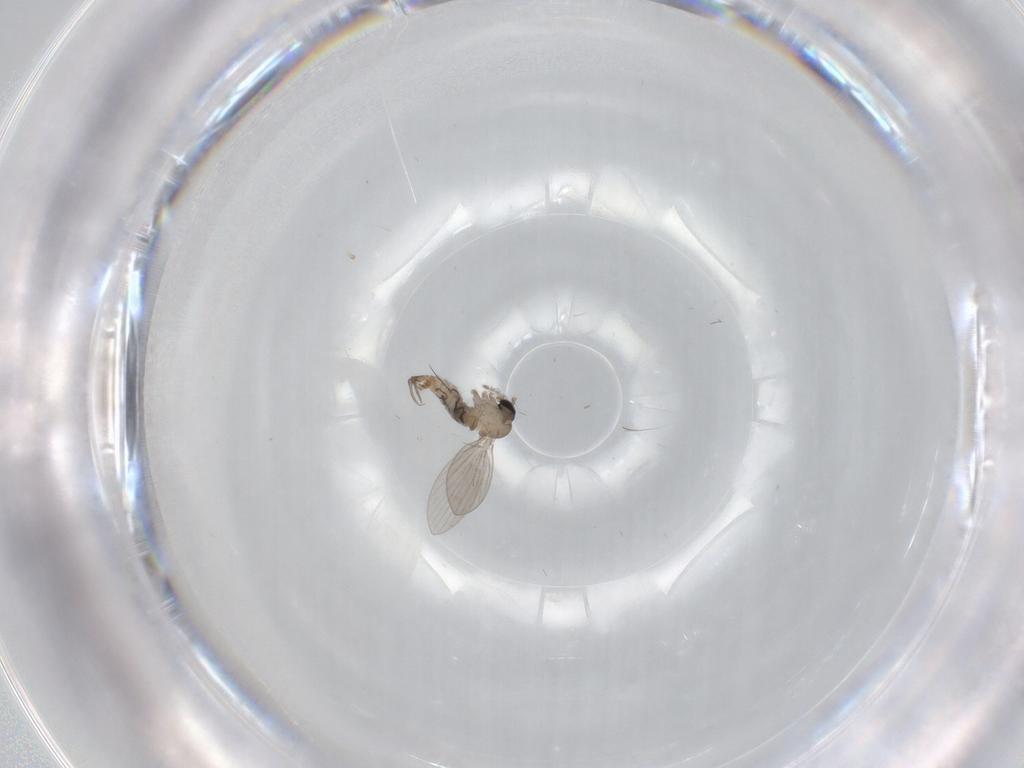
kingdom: Animalia
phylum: Arthropoda
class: Insecta
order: Diptera
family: Psychodidae
